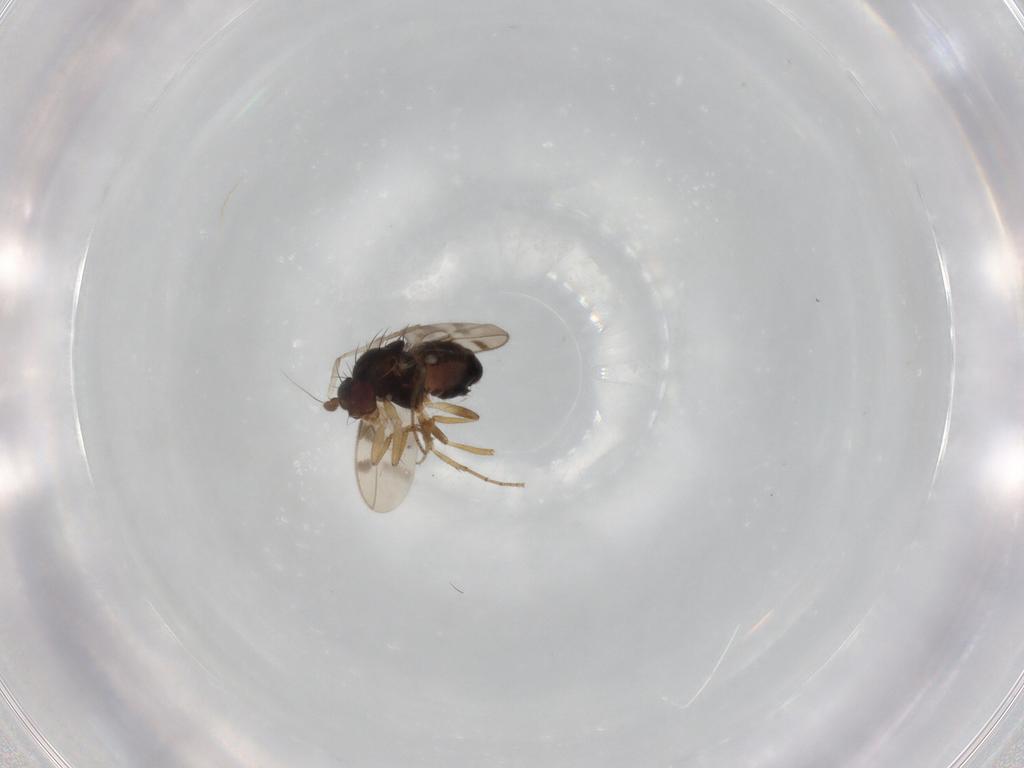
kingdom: Animalia
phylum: Arthropoda
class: Insecta
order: Diptera
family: Sphaeroceridae
